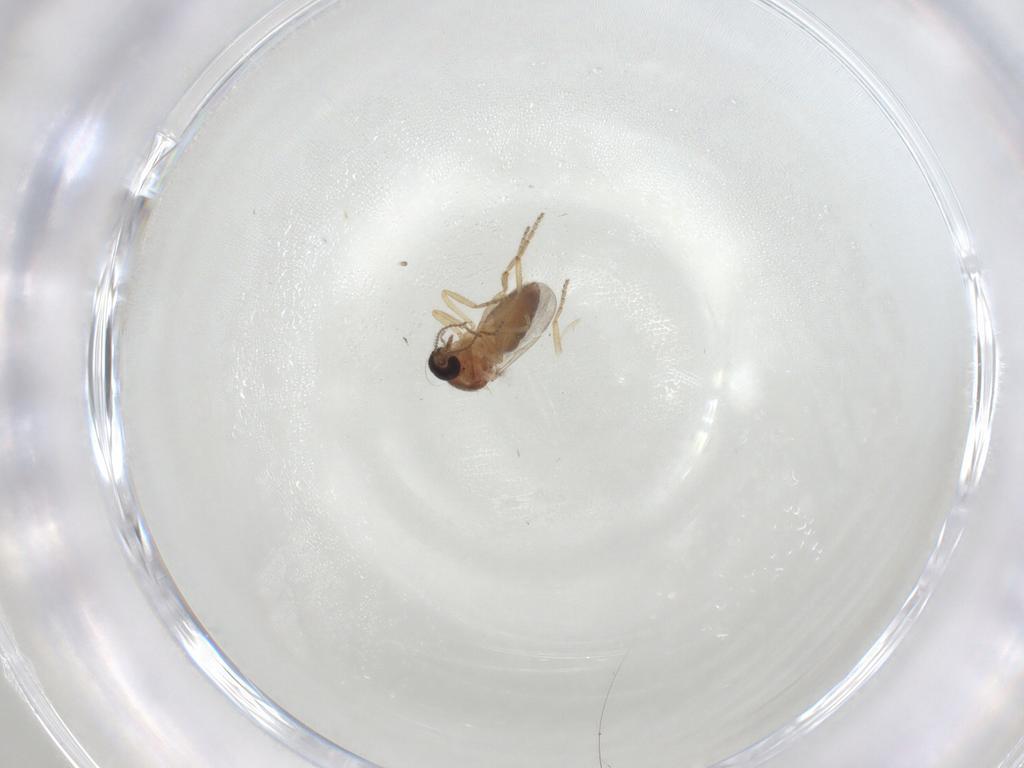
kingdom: Animalia
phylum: Arthropoda
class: Insecta
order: Diptera
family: Ceratopogonidae
